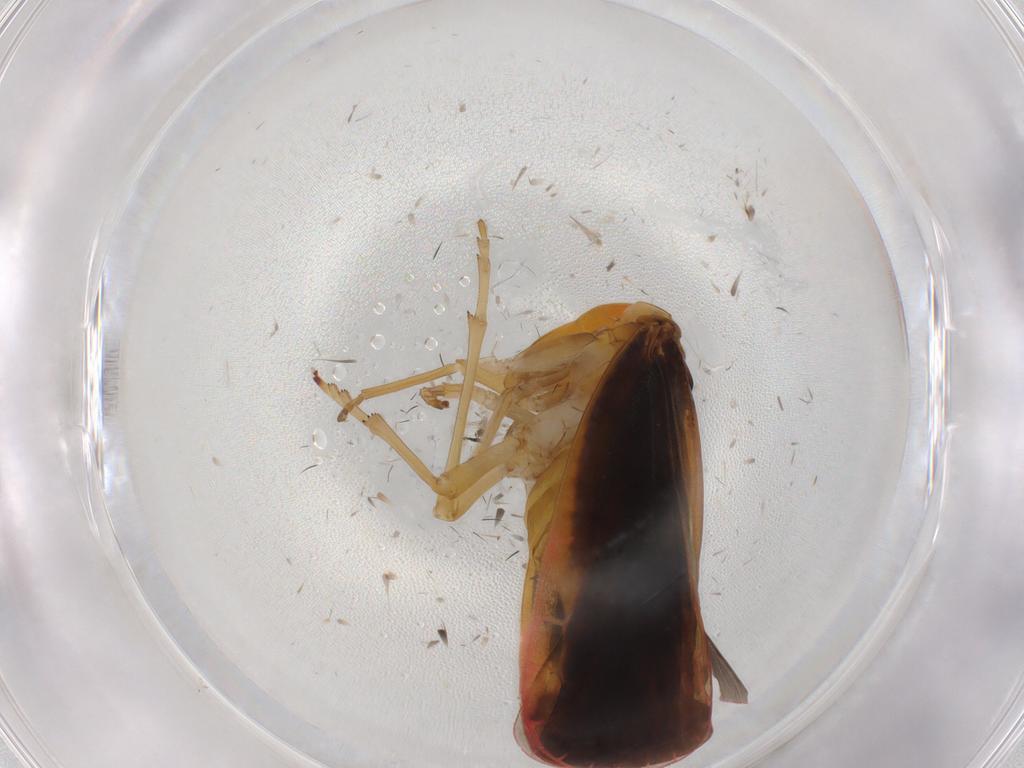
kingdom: Animalia
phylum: Arthropoda
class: Insecta
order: Hemiptera
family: Derbidae
